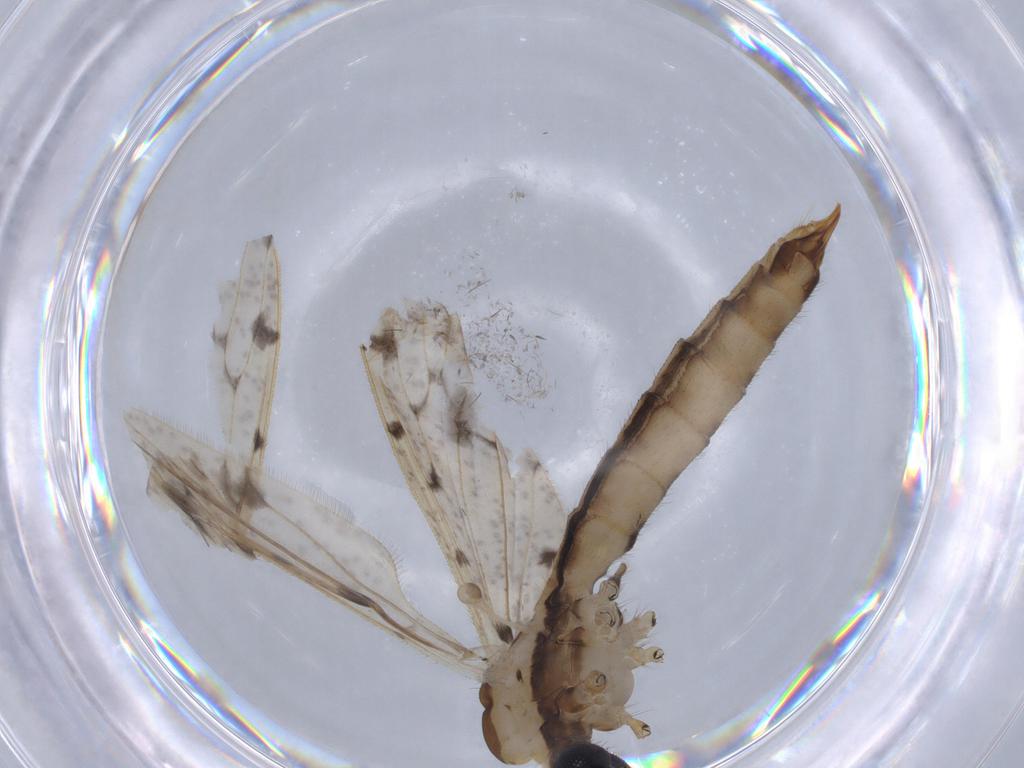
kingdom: Animalia
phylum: Arthropoda
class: Insecta
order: Diptera
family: Cecidomyiidae
